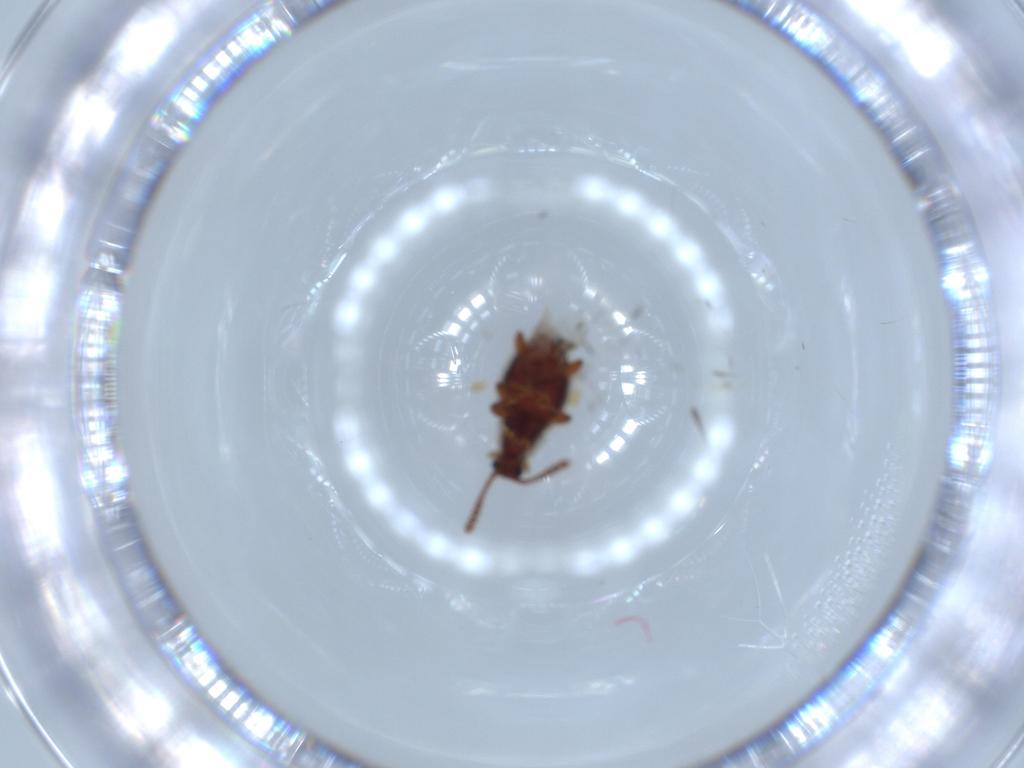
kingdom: Animalia
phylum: Arthropoda
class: Insecta
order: Coleoptera
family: Staphylinidae
